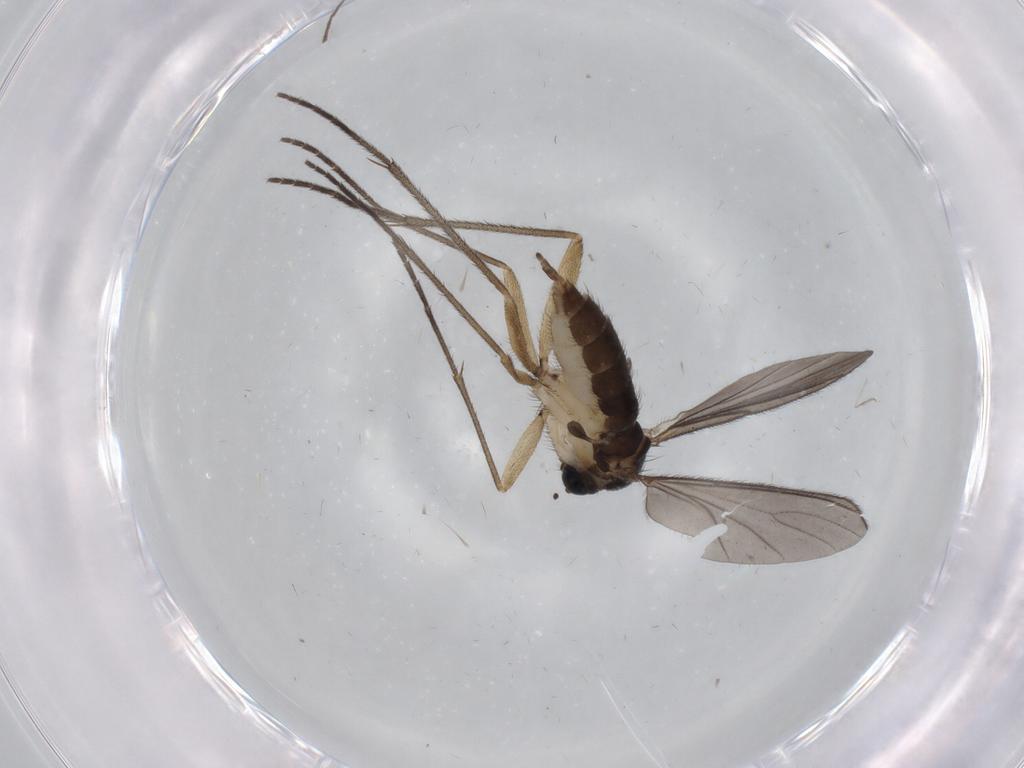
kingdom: Animalia
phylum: Arthropoda
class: Insecta
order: Diptera
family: Sciaridae
